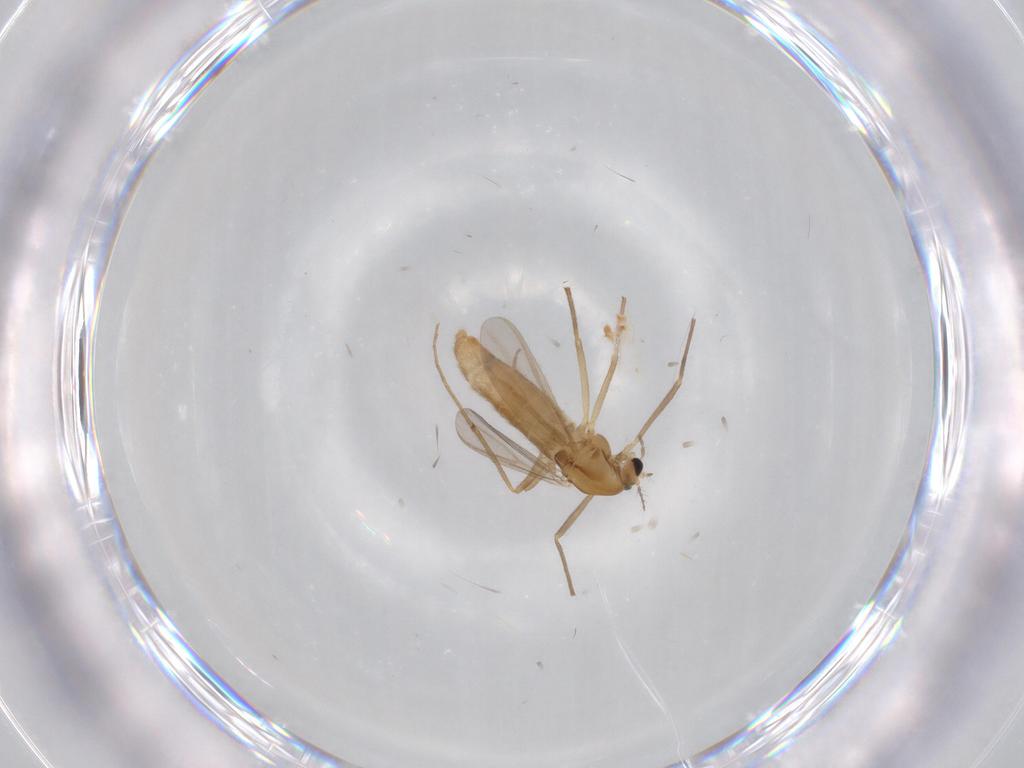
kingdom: Animalia
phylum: Arthropoda
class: Insecta
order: Diptera
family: Chironomidae
